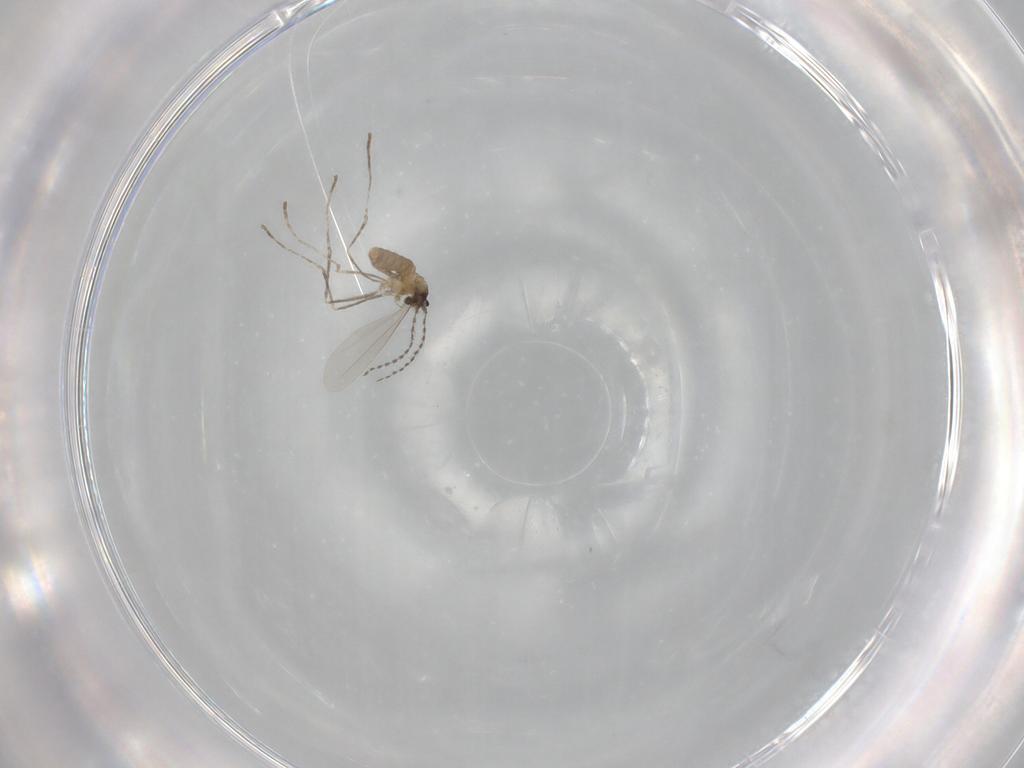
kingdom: Animalia
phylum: Arthropoda
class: Insecta
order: Diptera
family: Cecidomyiidae
